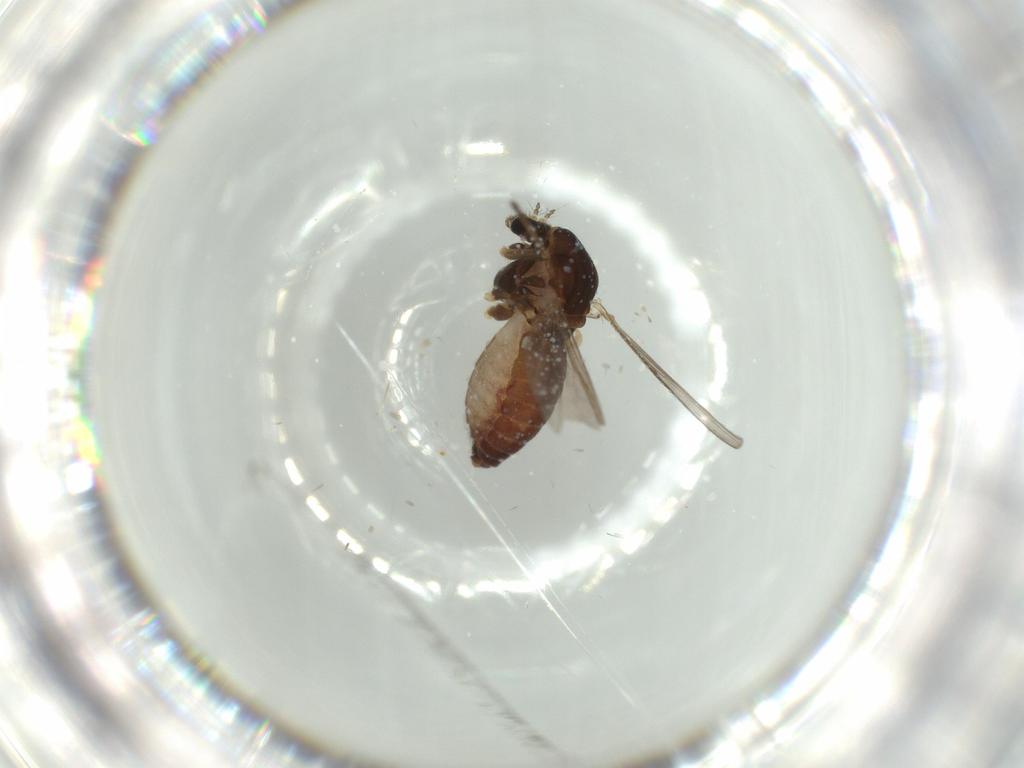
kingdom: Animalia
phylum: Arthropoda
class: Insecta
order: Diptera
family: Chironomidae
